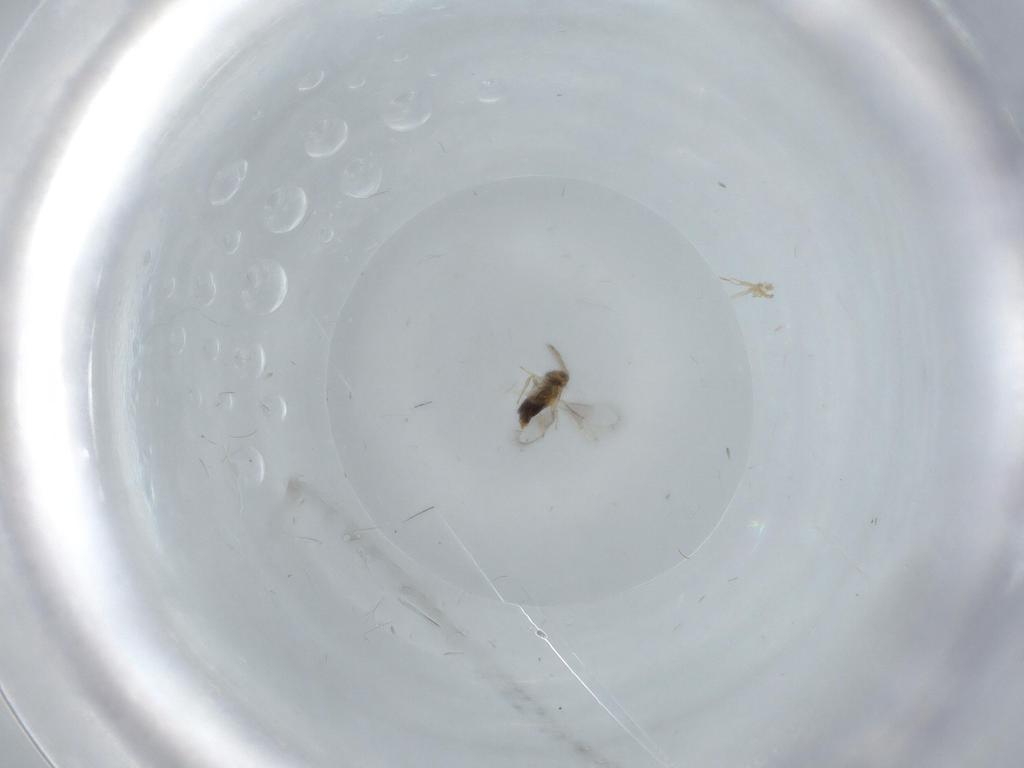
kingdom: Animalia
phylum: Arthropoda
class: Insecta
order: Hymenoptera
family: Aphelinidae
